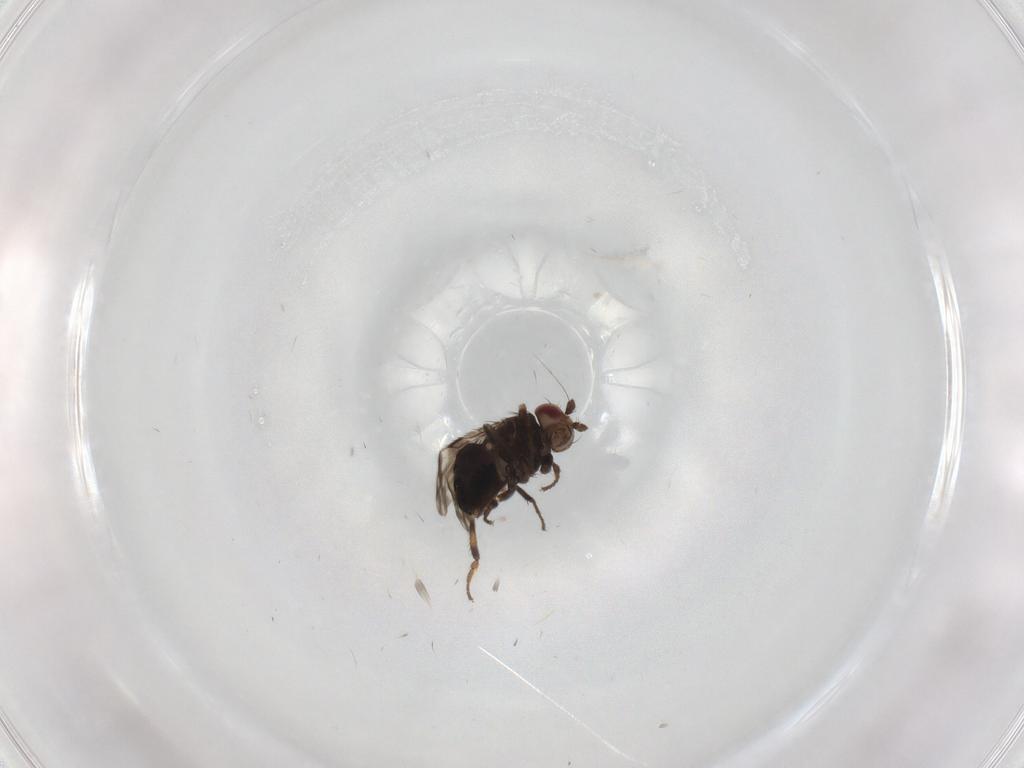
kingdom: Animalia
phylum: Arthropoda
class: Insecta
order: Diptera
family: Sphaeroceridae
